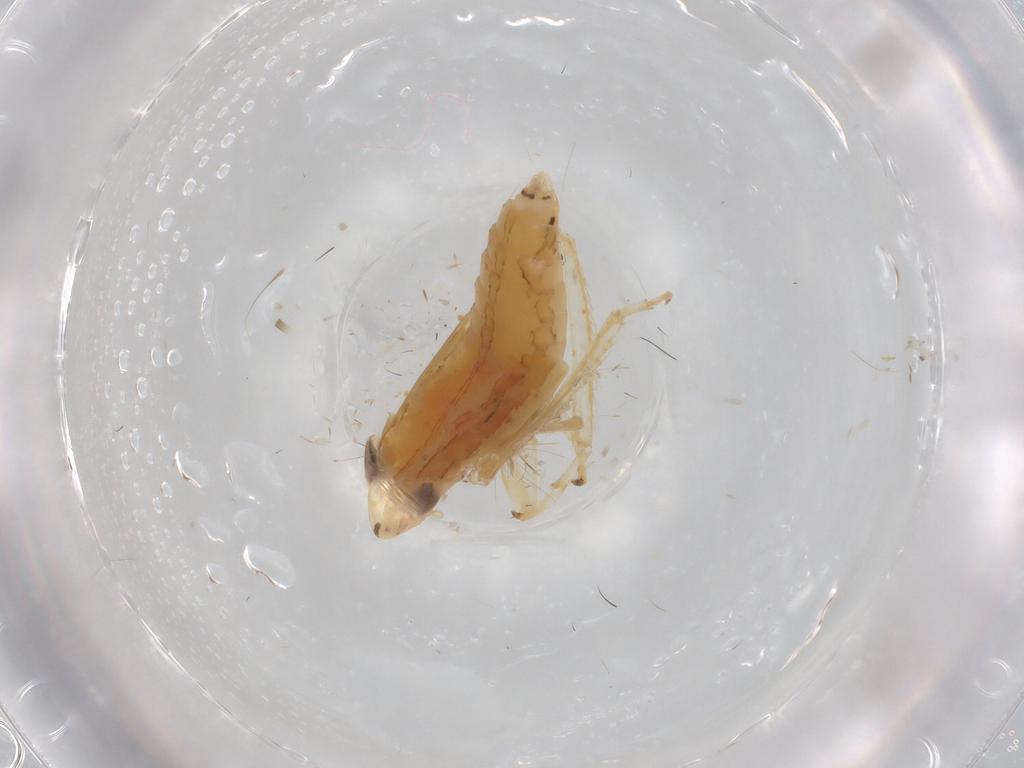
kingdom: Animalia
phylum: Arthropoda
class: Insecta
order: Hemiptera
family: Cicadellidae
